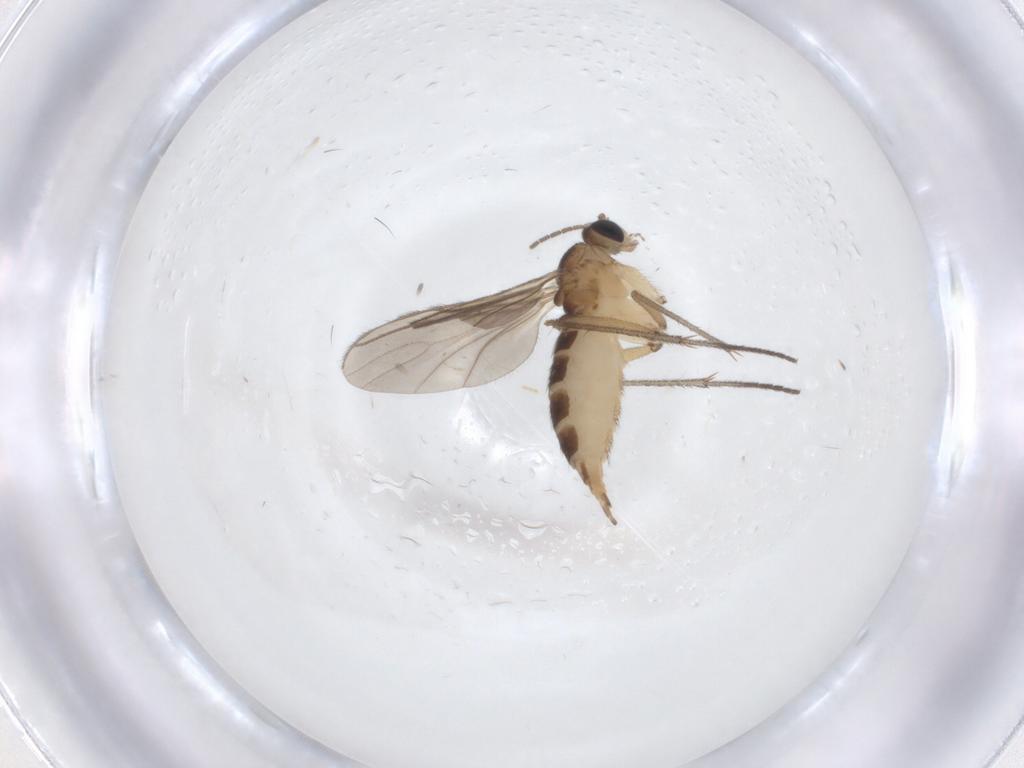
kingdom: Animalia
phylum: Arthropoda
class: Insecta
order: Diptera
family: Sciaridae
